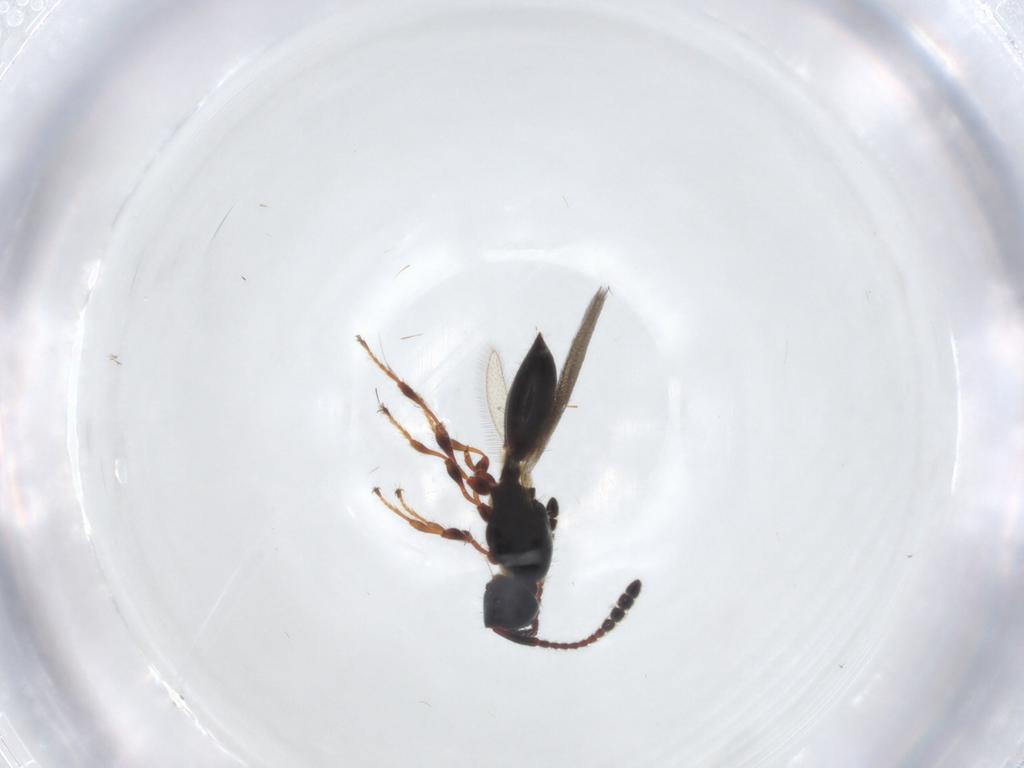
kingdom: Animalia
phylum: Arthropoda
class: Insecta
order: Hymenoptera
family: Diapriidae
